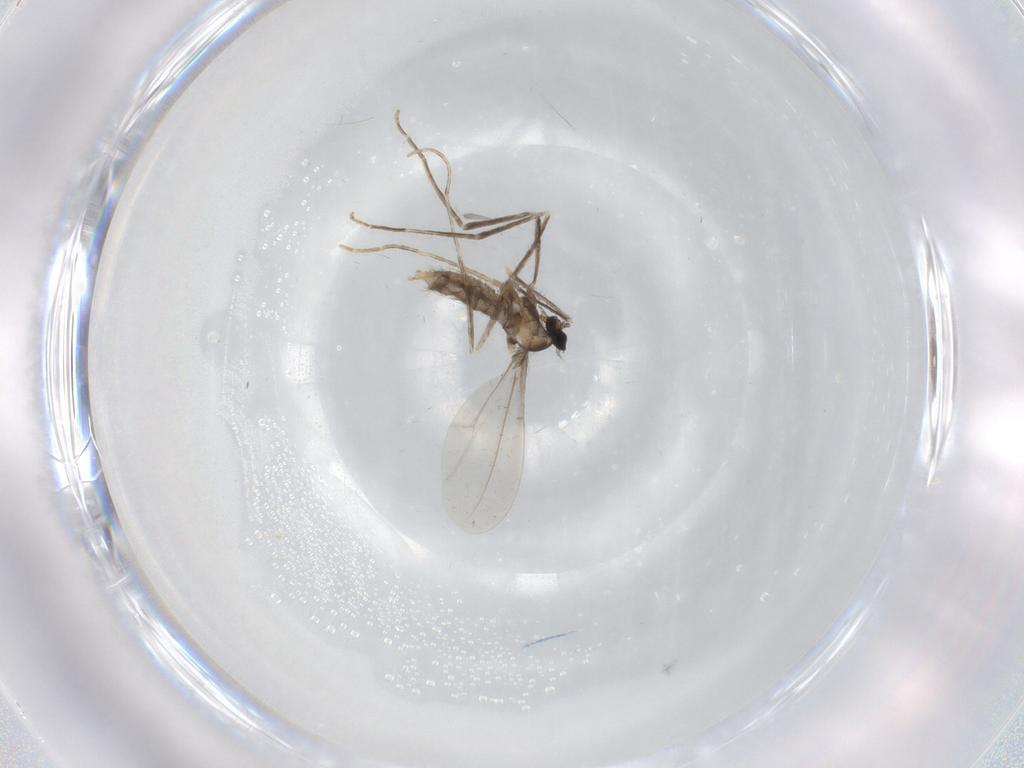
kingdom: Animalia
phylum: Arthropoda
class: Insecta
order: Diptera
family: Cecidomyiidae
